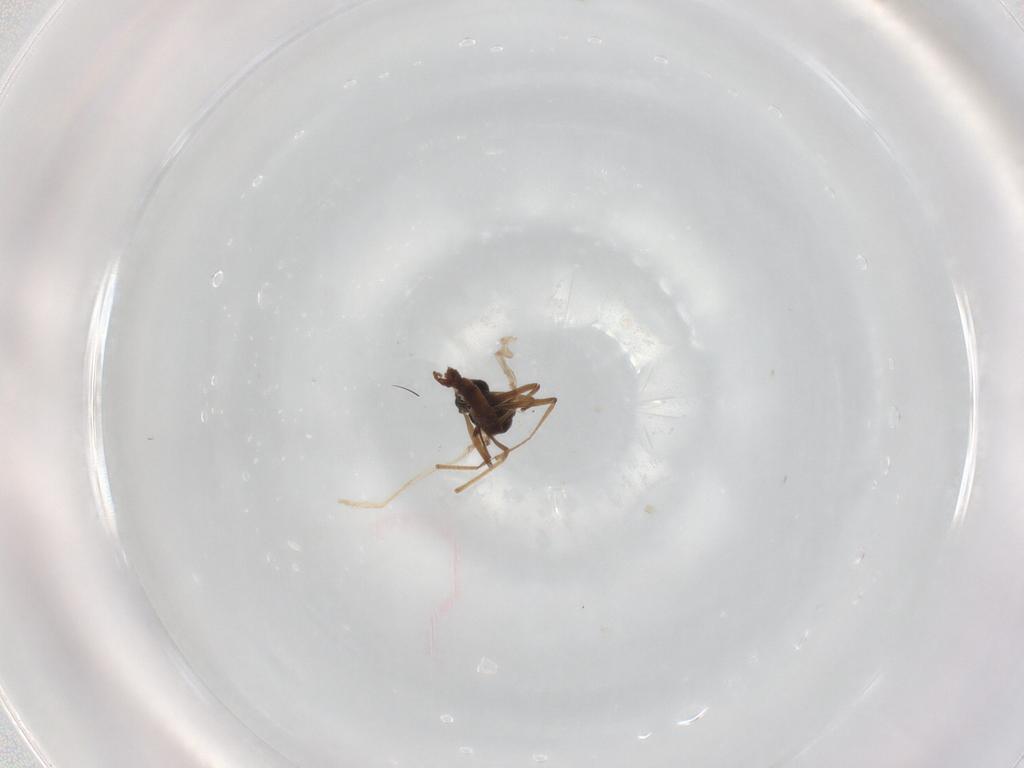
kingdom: Animalia
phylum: Arthropoda
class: Insecta
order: Diptera
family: Chironomidae
